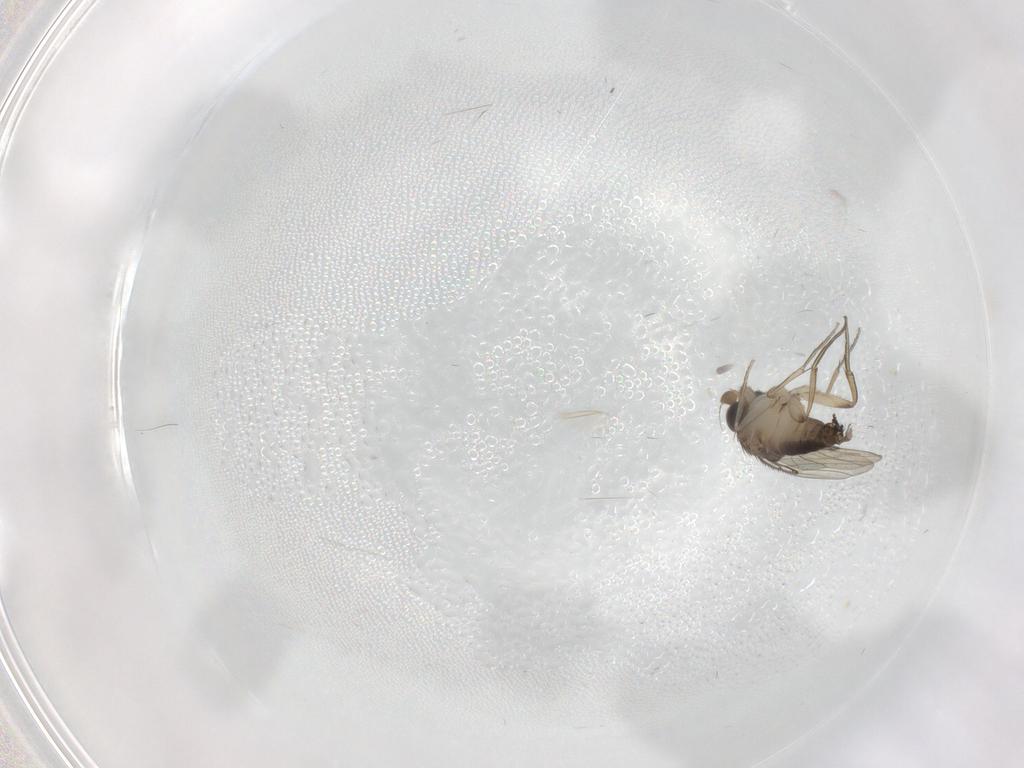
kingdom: Animalia
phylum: Arthropoda
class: Insecta
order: Diptera
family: Chironomidae
